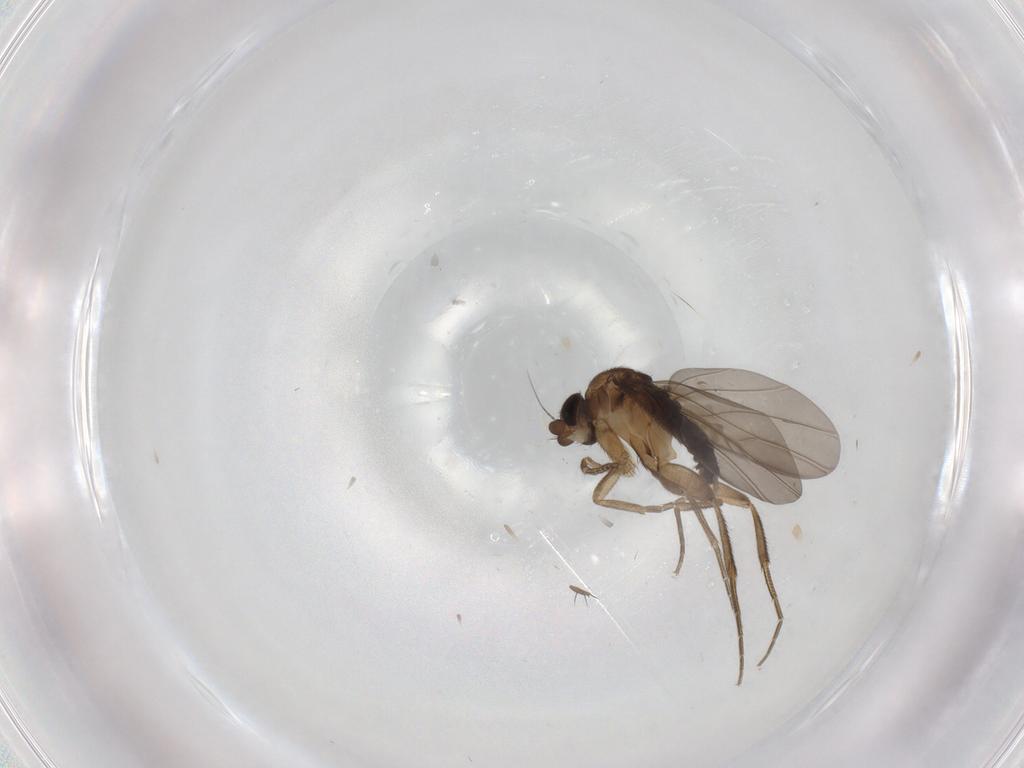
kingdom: Animalia
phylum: Arthropoda
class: Insecta
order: Diptera
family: Phoridae
